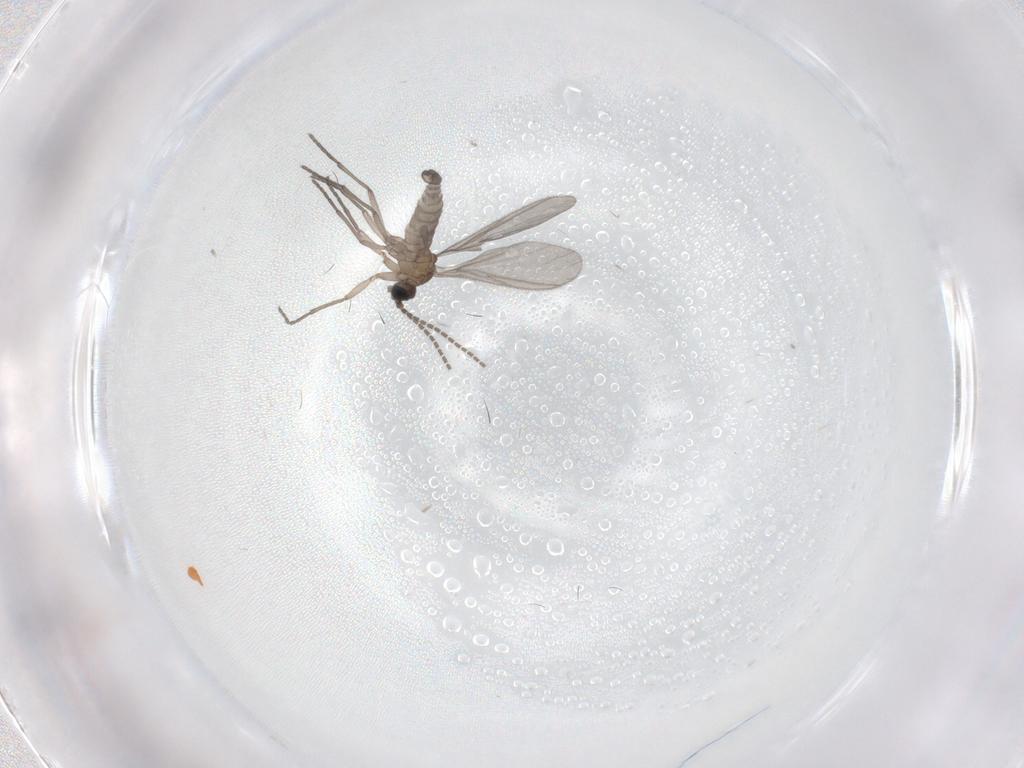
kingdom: Animalia
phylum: Arthropoda
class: Insecta
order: Diptera
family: Sciaridae
